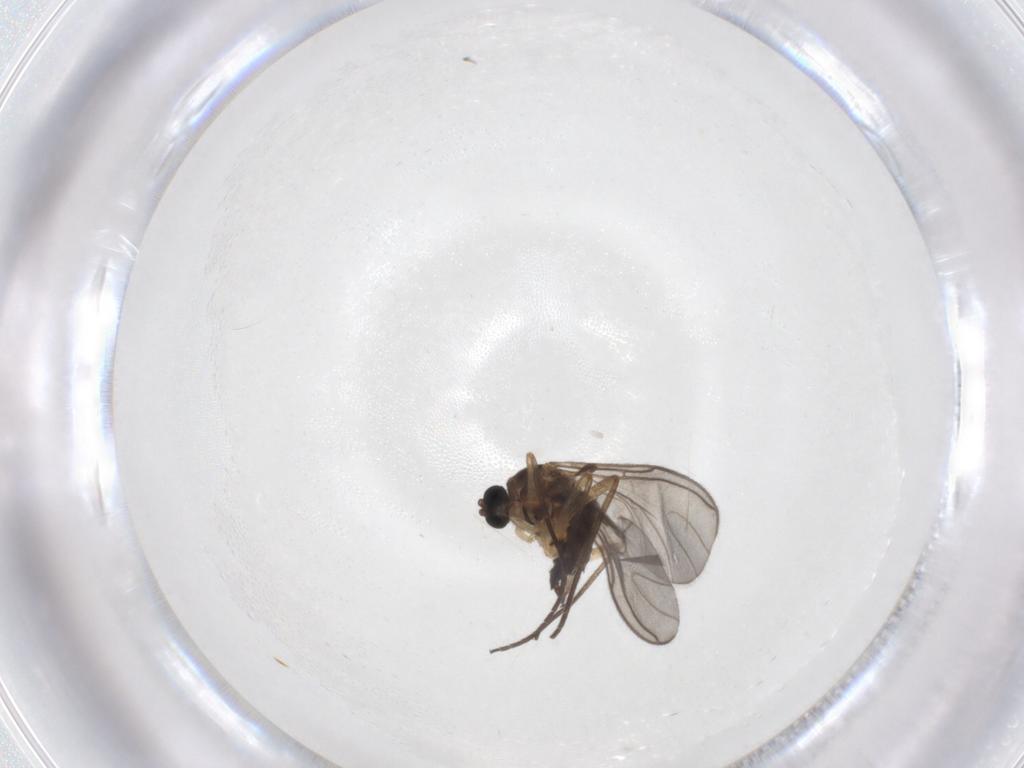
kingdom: Animalia
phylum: Arthropoda
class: Insecta
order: Diptera
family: Sciaridae
